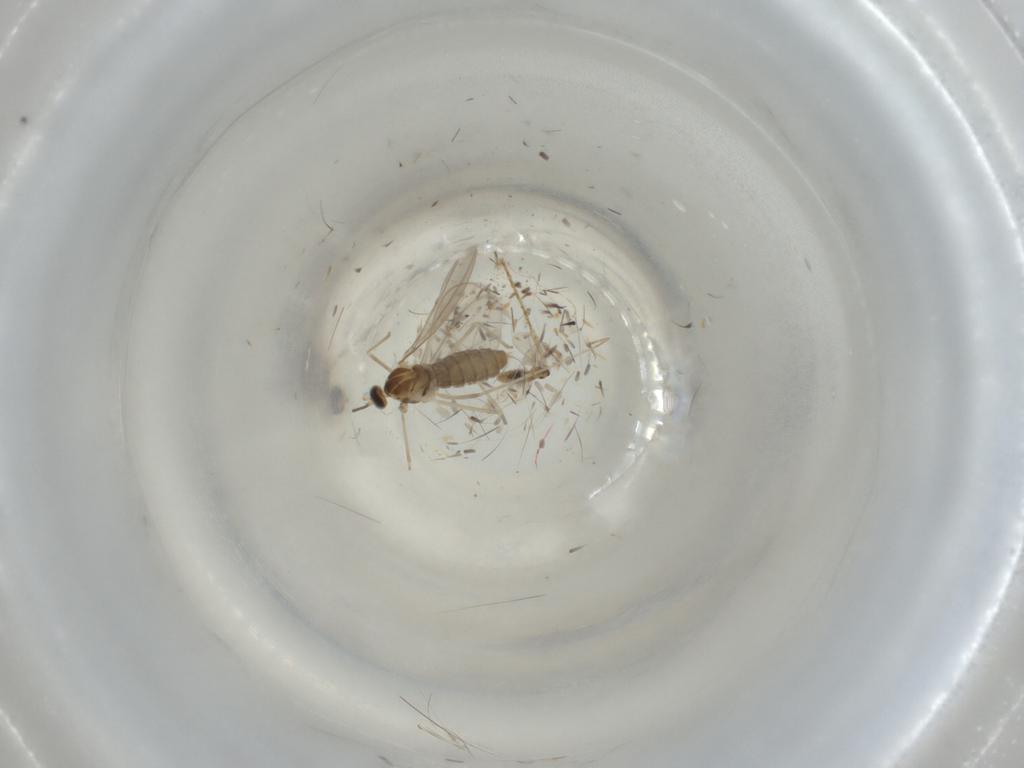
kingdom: Animalia
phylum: Arthropoda
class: Insecta
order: Diptera
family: Cecidomyiidae
